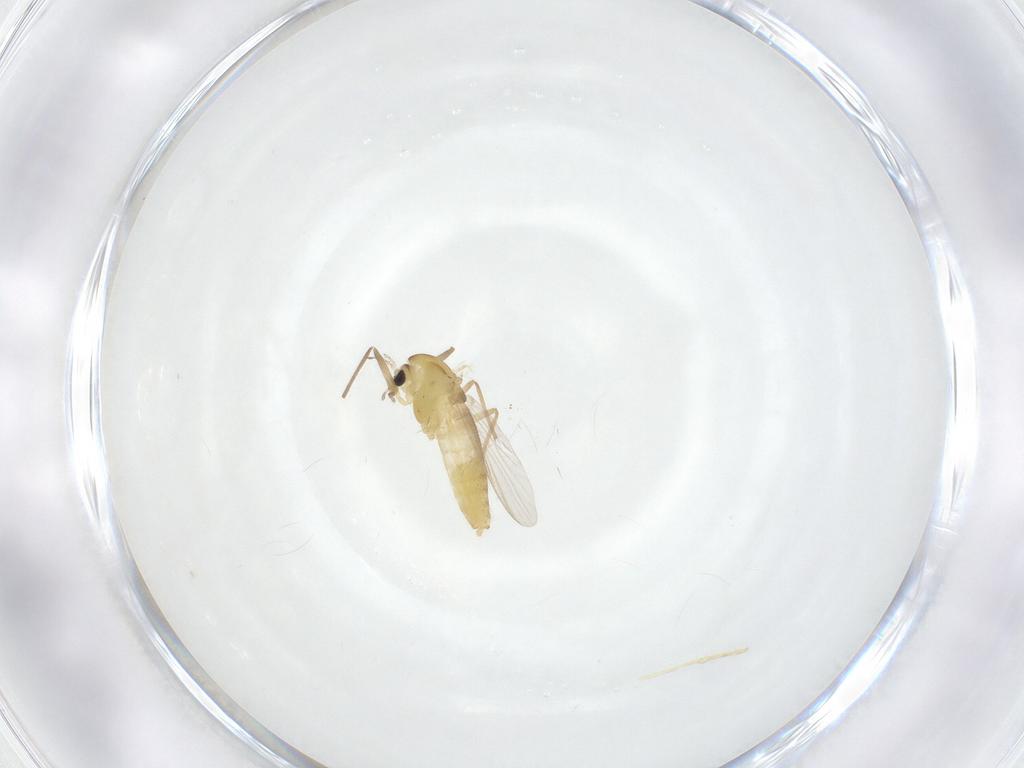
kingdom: Animalia
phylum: Arthropoda
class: Insecta
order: Diptera
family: Chironomidae
